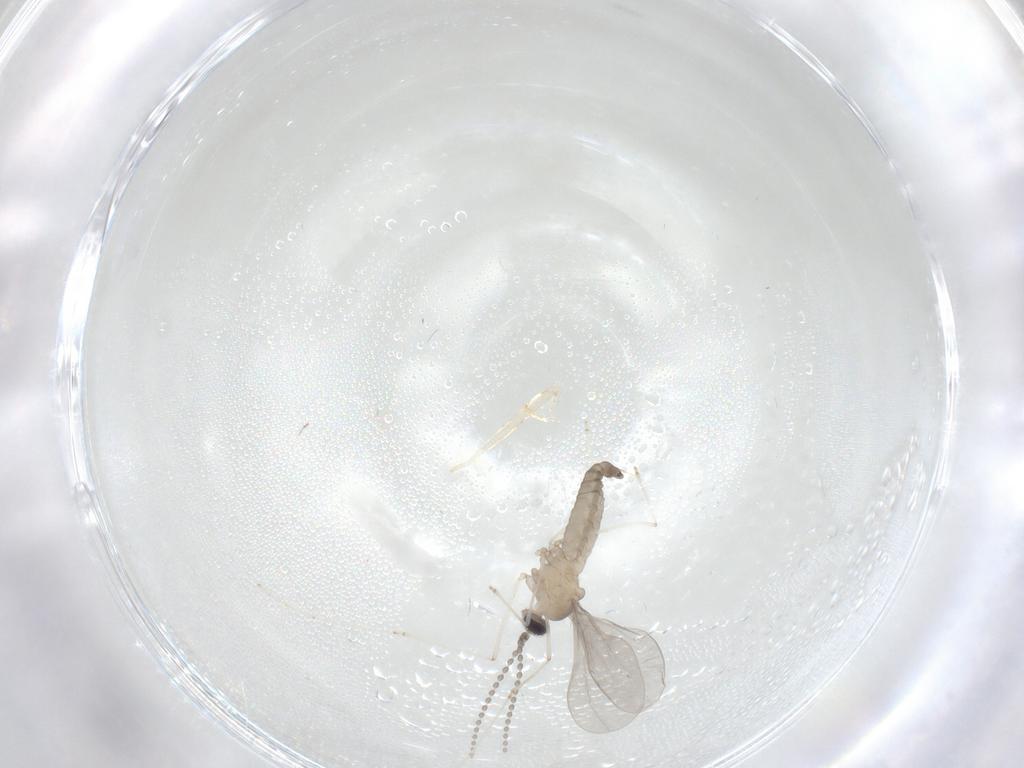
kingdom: Animalia
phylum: Arthropoda
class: Insecta
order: Diptera
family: Cecidomyiidae
